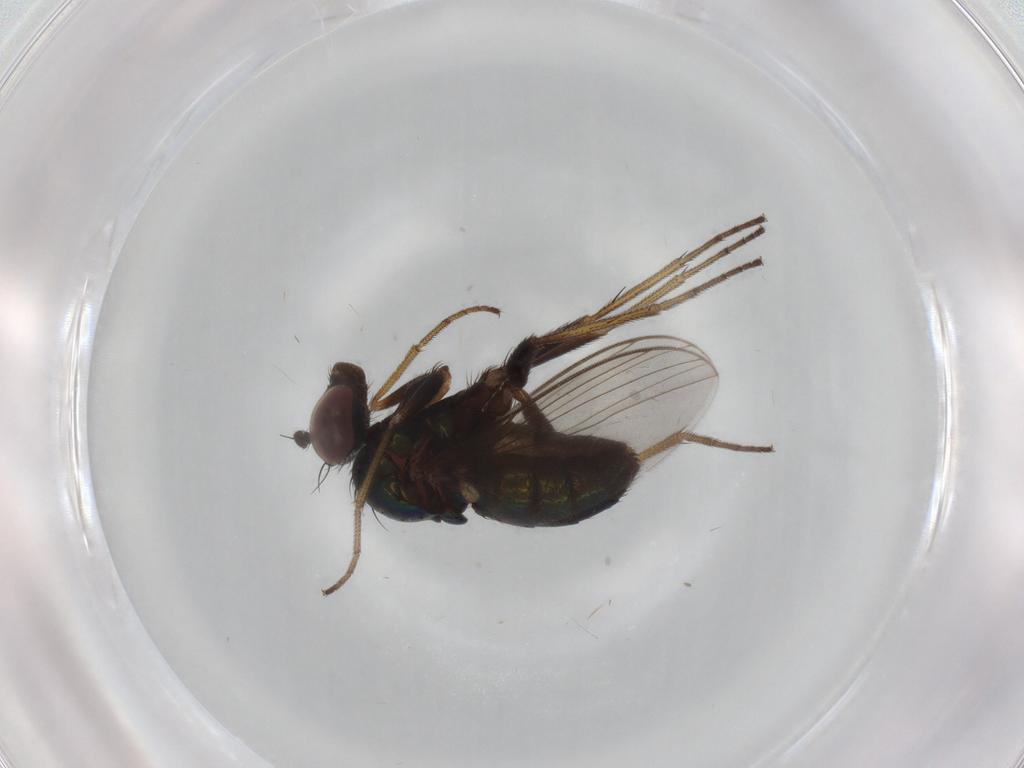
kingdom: Animalia
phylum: Arthropoda
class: Insecta
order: Diptera
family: Dolichopodidae
